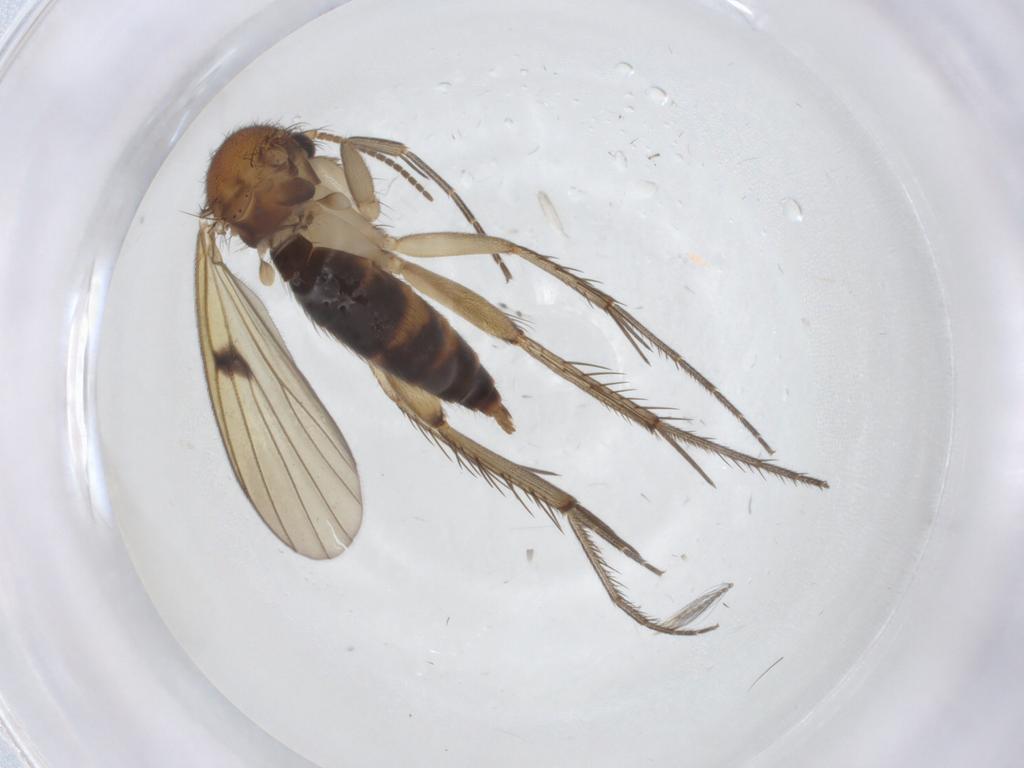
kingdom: Animalia
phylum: Arthropoda
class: Insecta
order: Diptera
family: Mycetophilidae
